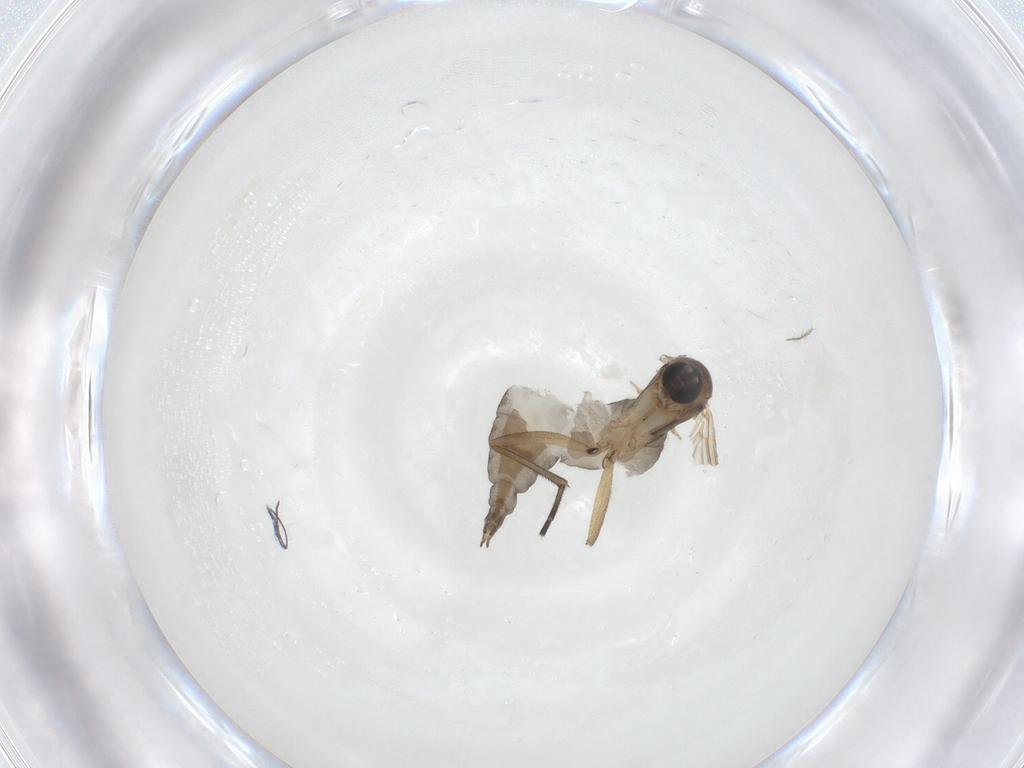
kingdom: Animalia
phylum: Arthropoda
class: Insecta
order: Diptera
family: Sciaridae
